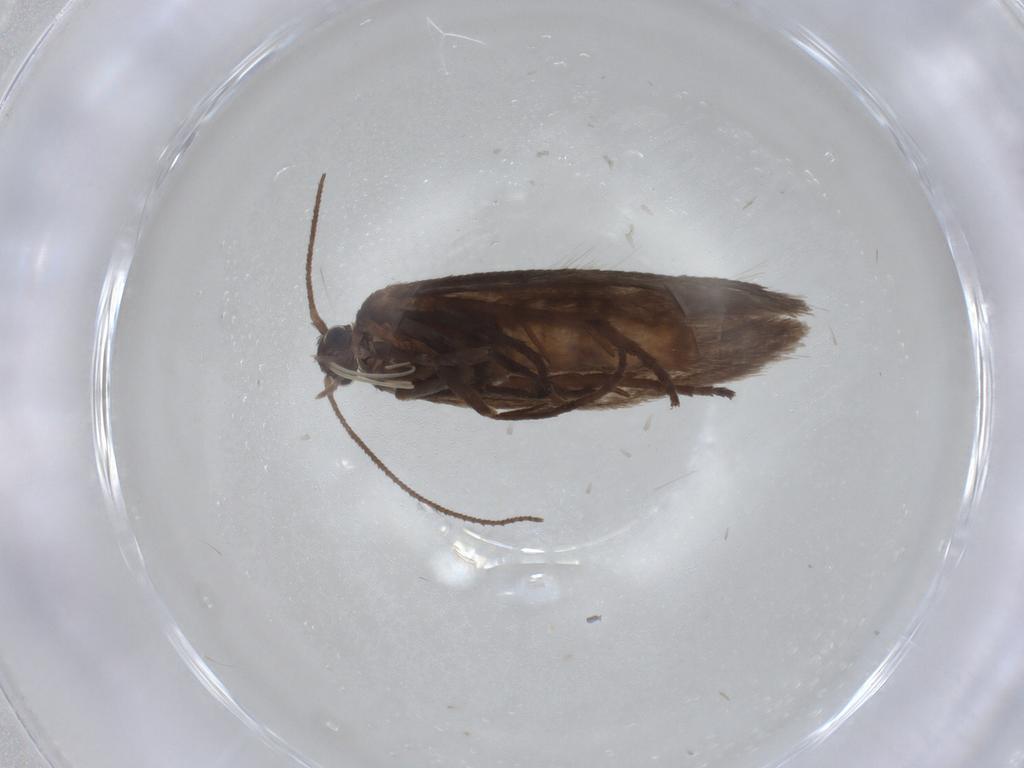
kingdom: Animalia
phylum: Arthropoda
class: Insecta
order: Lepidoptera
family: Limacodidae
